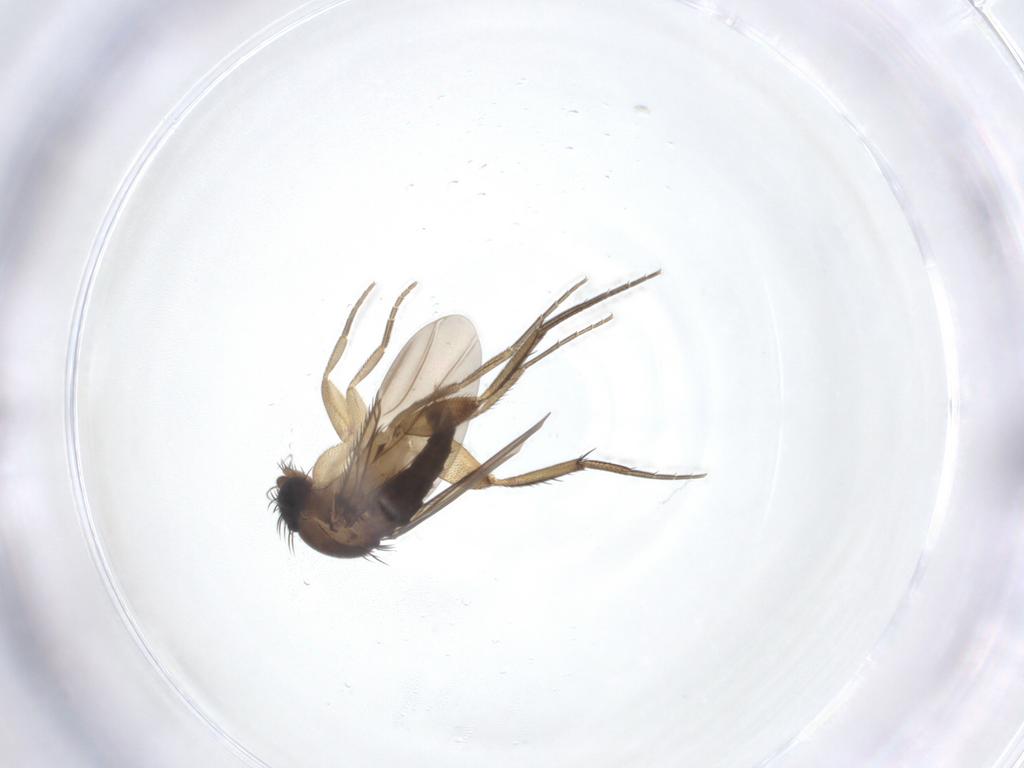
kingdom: Animalia
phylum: Arthropoda
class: Insecta
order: Diptera
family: Phoridae
